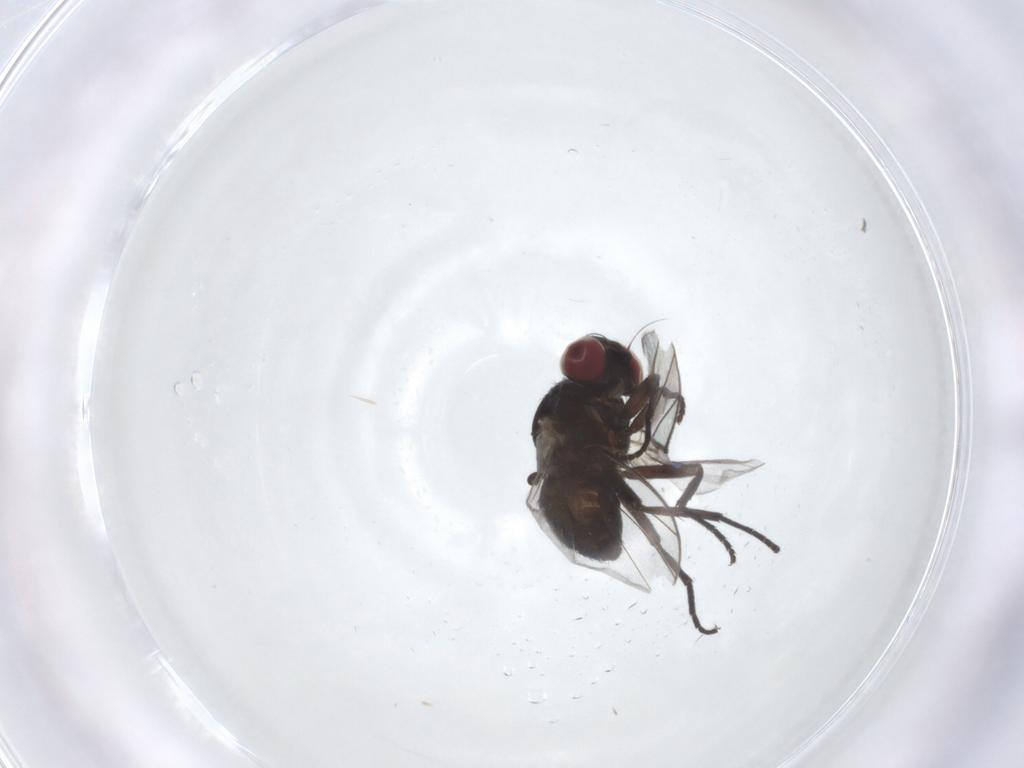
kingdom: Animalia
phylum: Arthropoda
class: Insecta
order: Diptera
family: Agromyzidae
